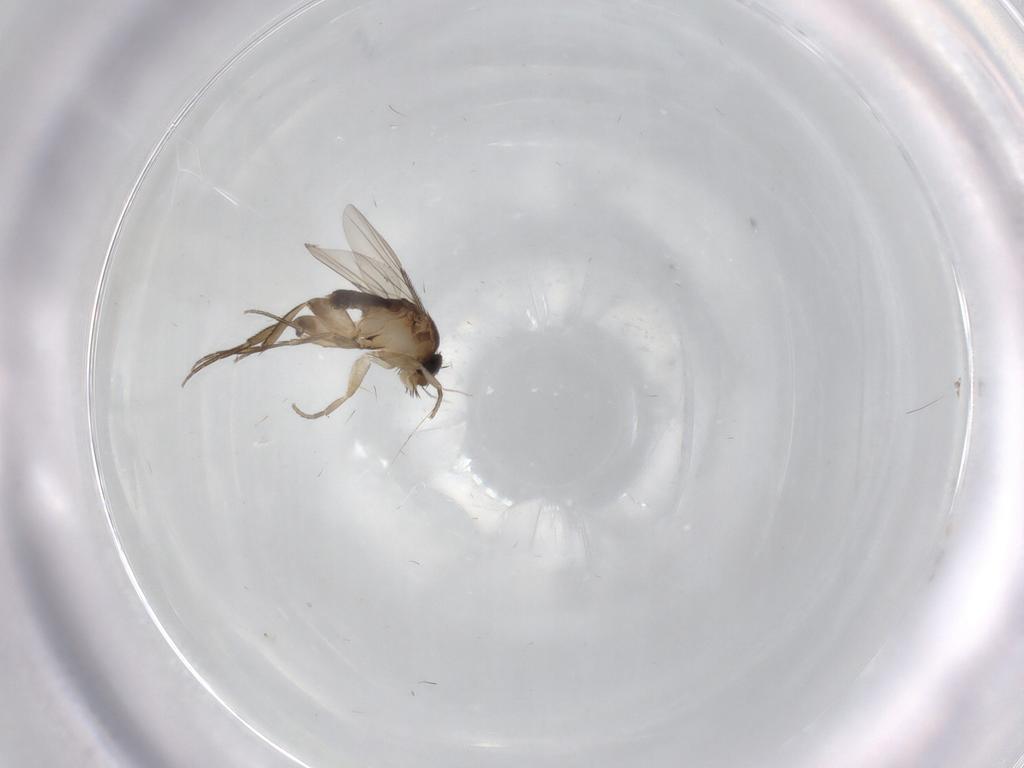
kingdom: Animalia
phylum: Arthropoda
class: Insecta
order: Diptera
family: Mycetophilidae
